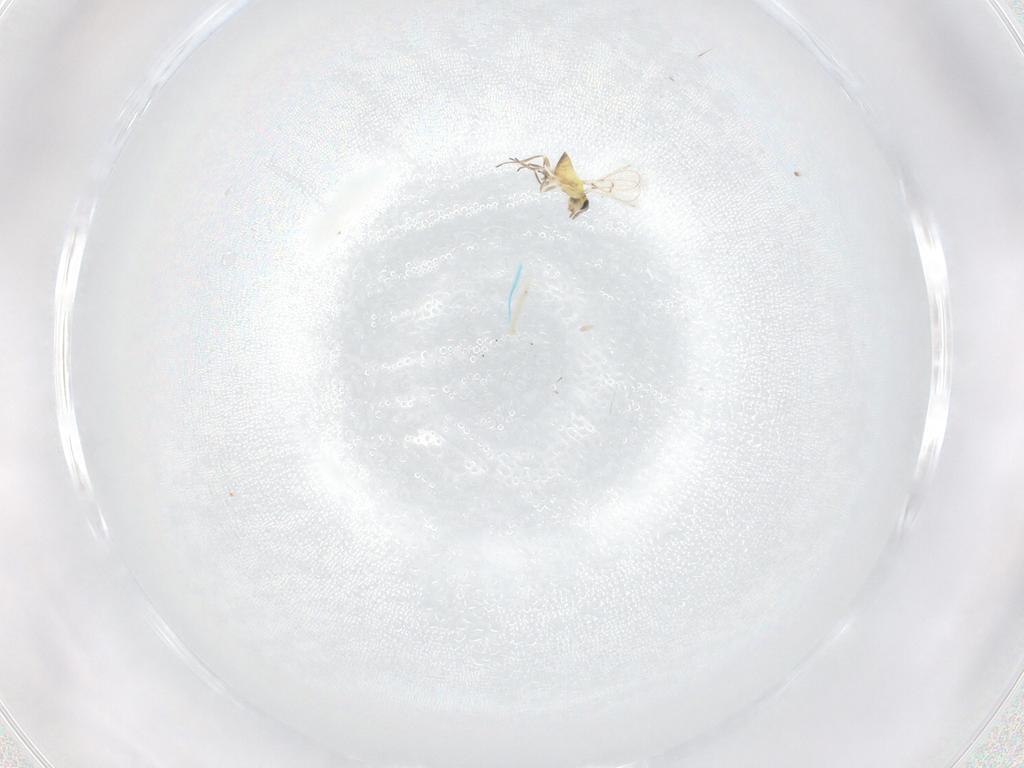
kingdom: Animalia
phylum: Arthropoda
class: Insecta
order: Hymenoptera
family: Trichogrammatidae
